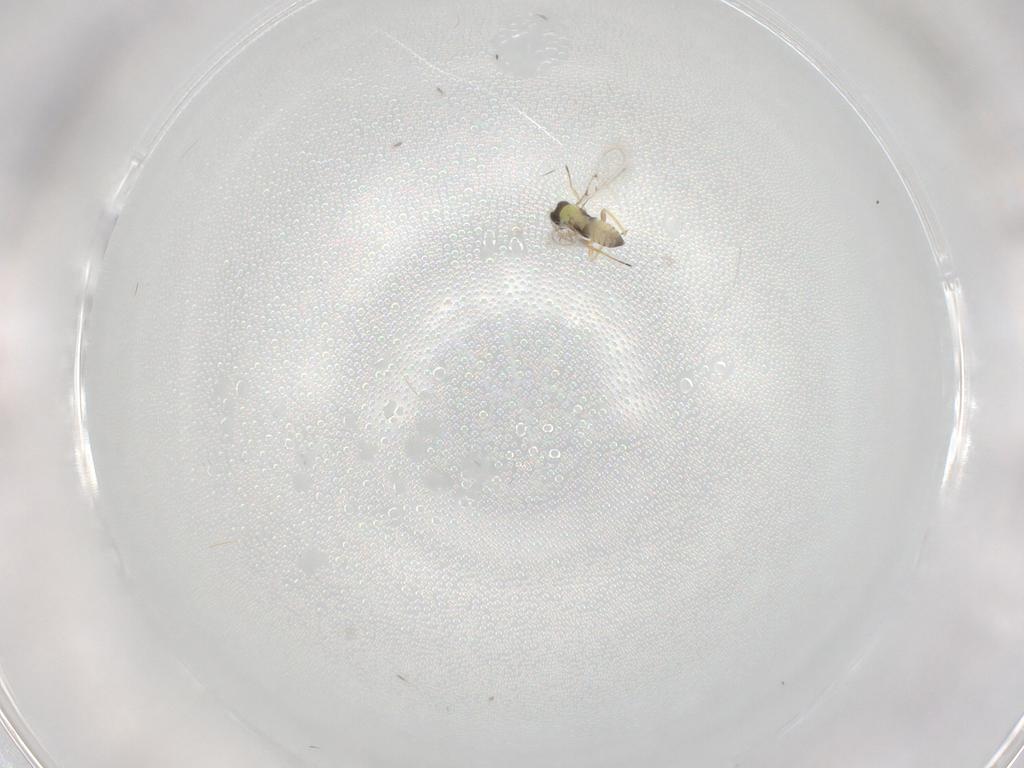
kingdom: Animalia
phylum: Arthropoda
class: Insecta
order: Hymenoptera
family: Trichogrammatidae
